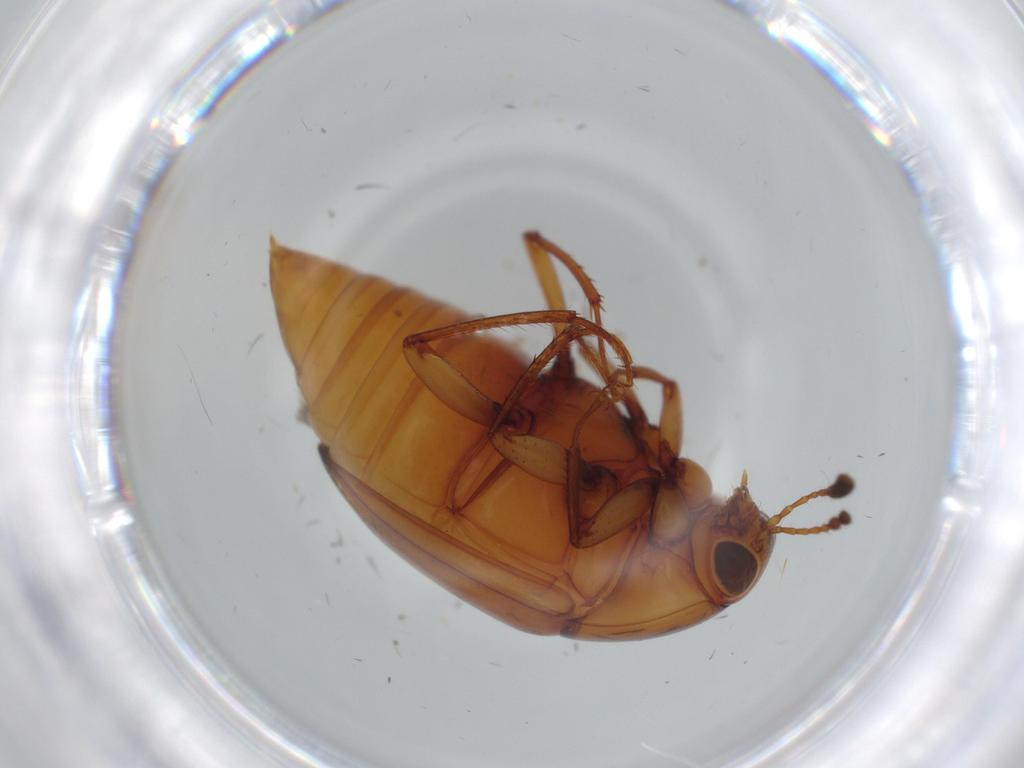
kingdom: Animalia
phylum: Arthropoda
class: Insecta
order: Coleoptera
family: Chrysomelidae
